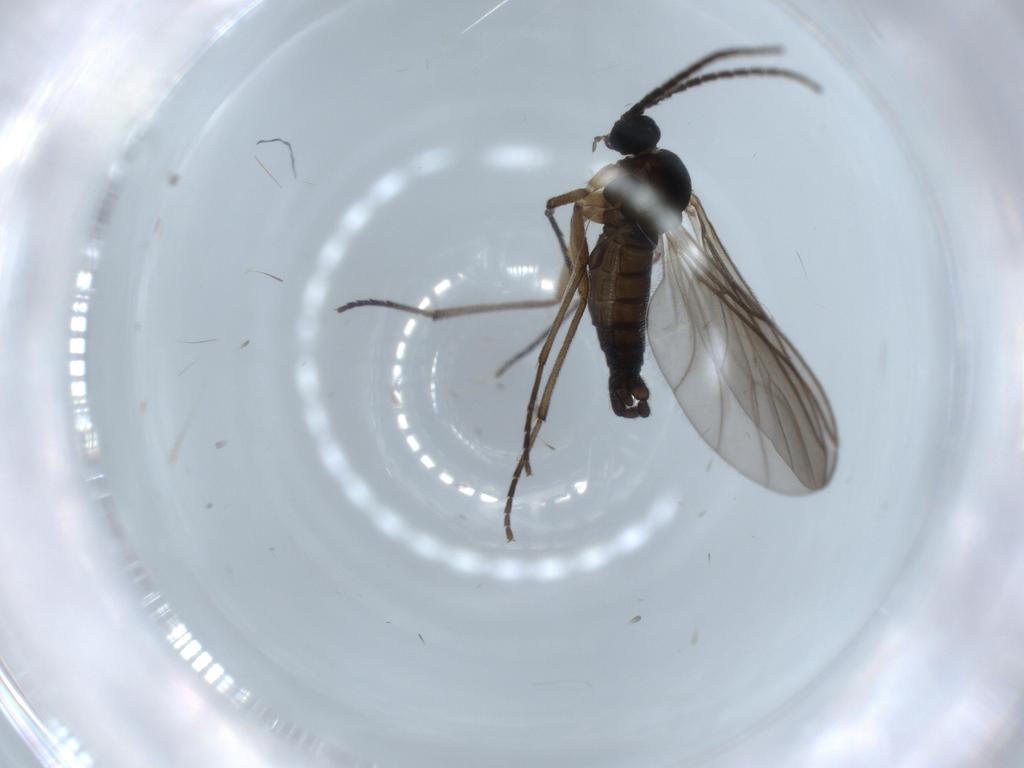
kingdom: Animalia
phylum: Arthropoda
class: Insecta
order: Diptera
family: Sciaridae
